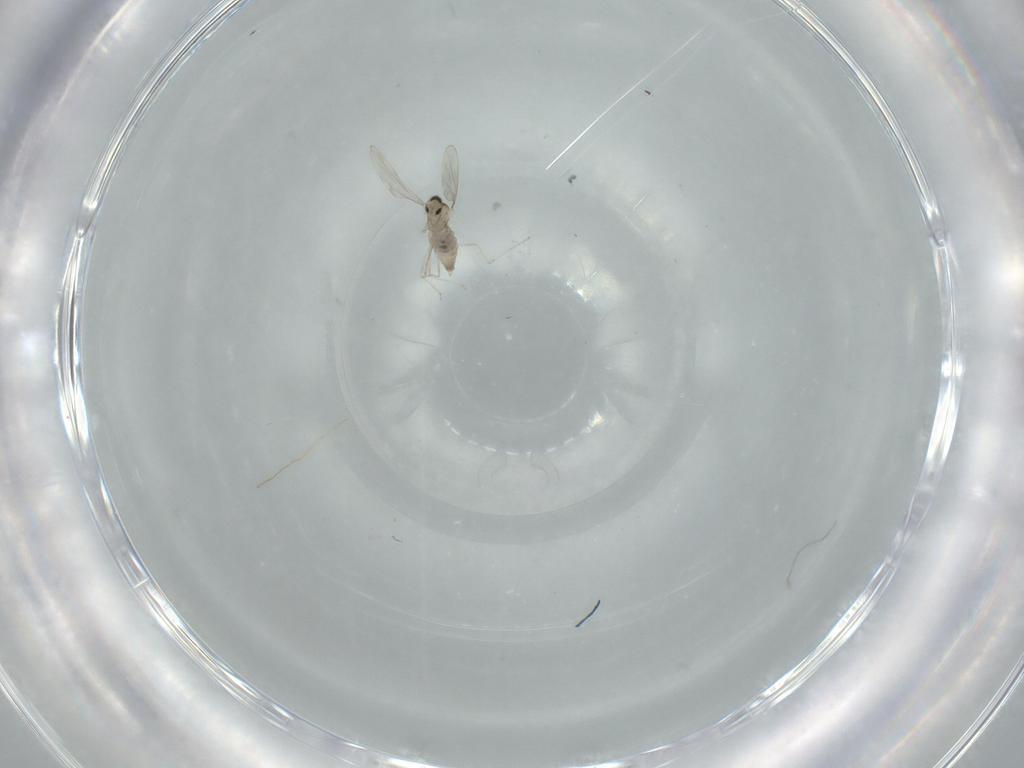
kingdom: Animalia
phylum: Arthropoda
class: Insecta
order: Diptera
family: Cecidomyiidae
